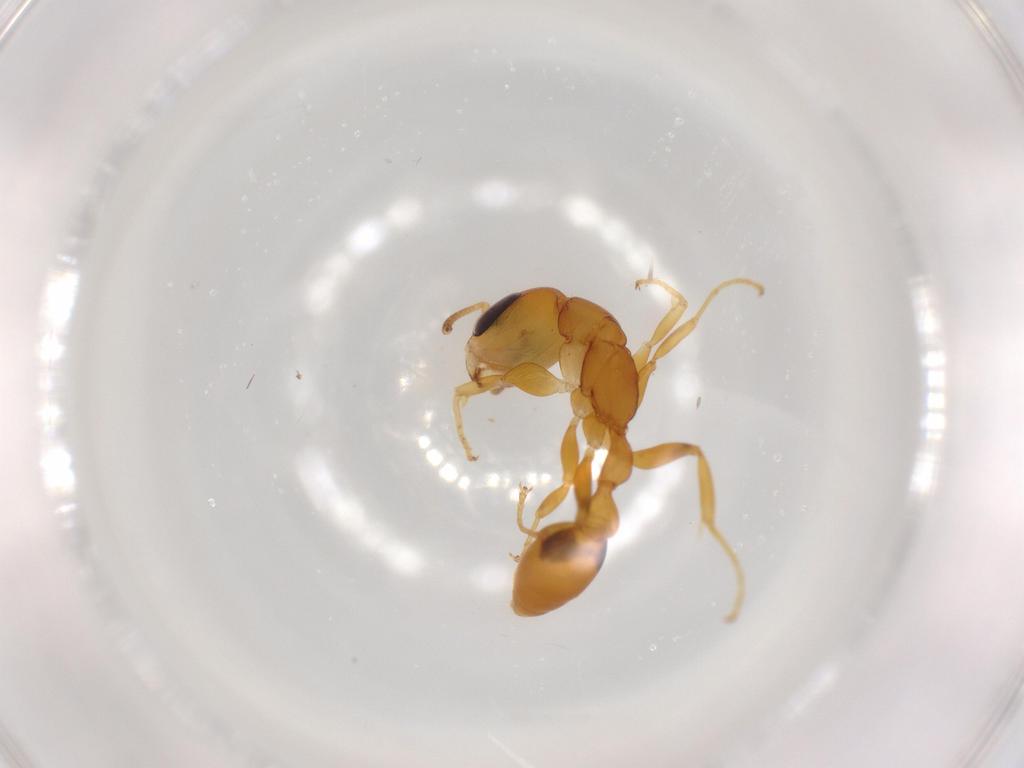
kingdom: Animalia
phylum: Arthropoda
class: Insecta
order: Hymenoptera
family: Formicidae
